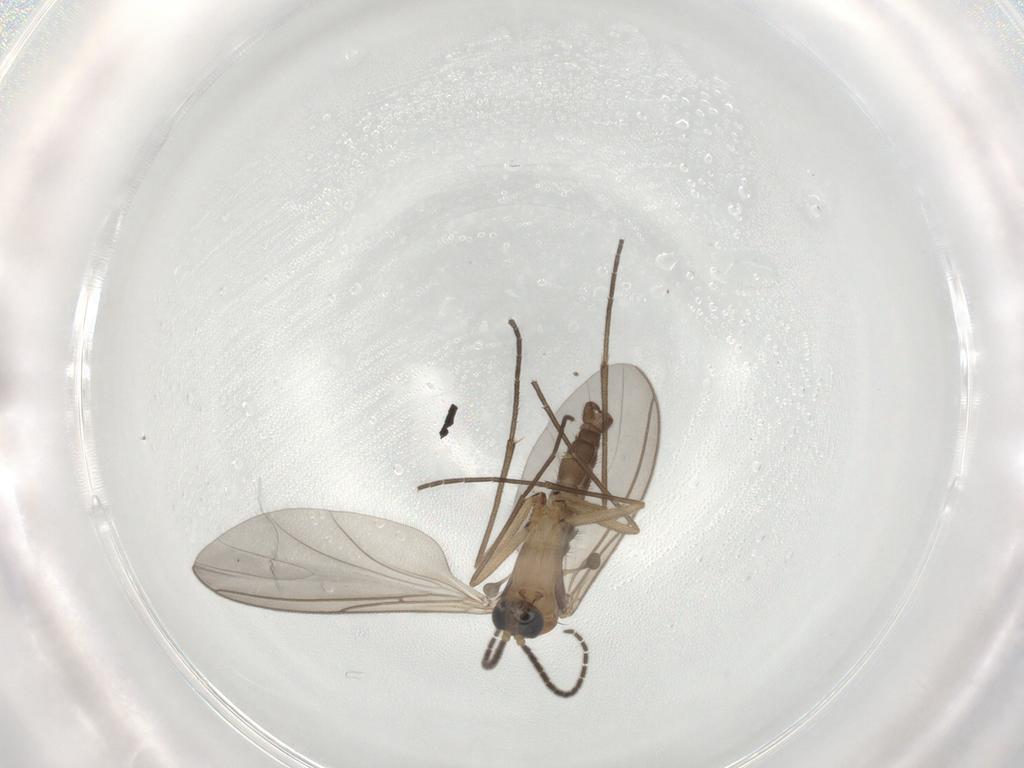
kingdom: Animalia
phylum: Arthropoda
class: Insecta
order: Diptera
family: Sciaridae
